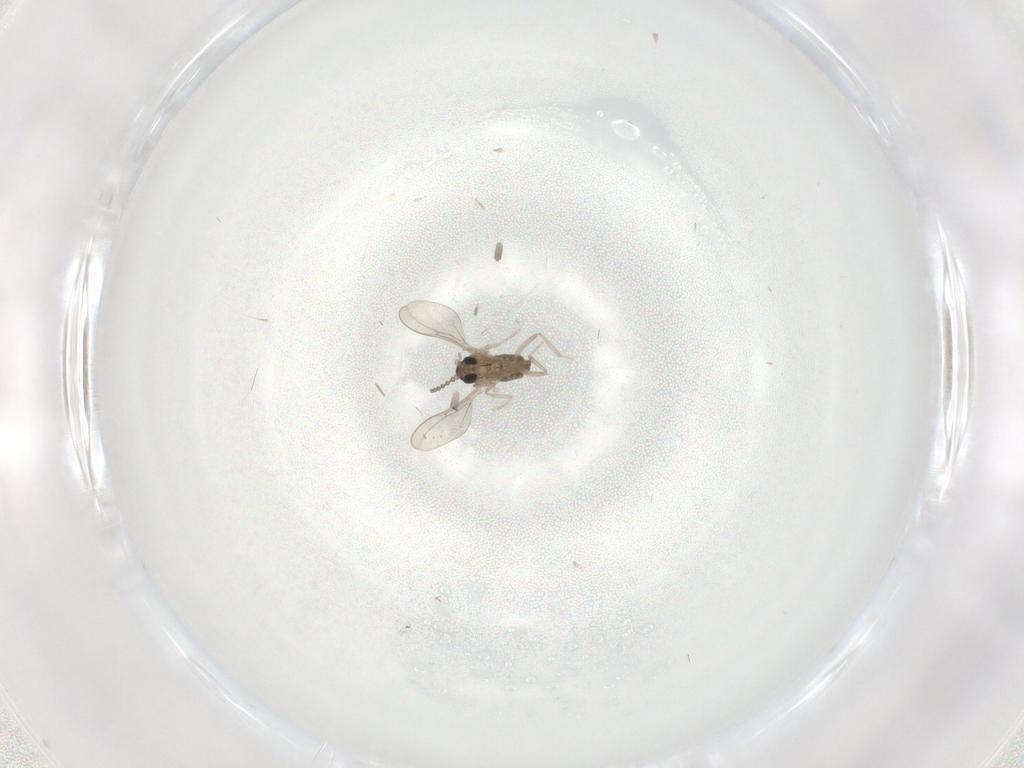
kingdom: Animalia
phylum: Arthropoda
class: Insecta
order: Diptera
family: Cecidomyiidae
